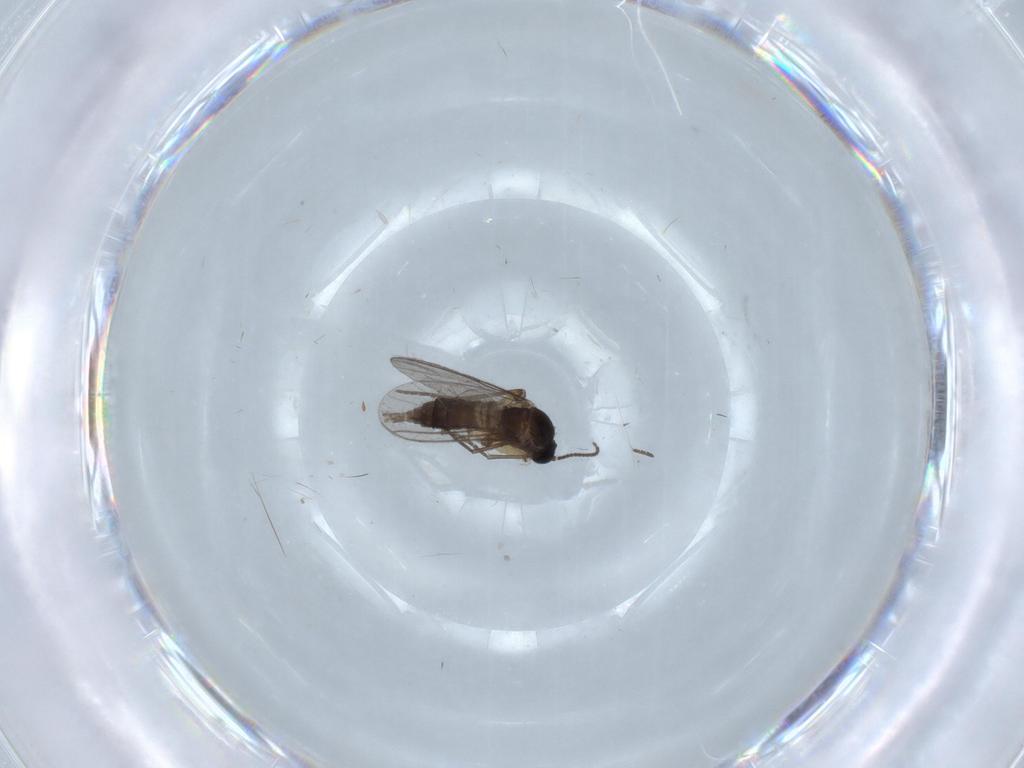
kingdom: Animalia
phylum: Arthropoda
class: Insecta
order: Diptera
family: Sciaridae
